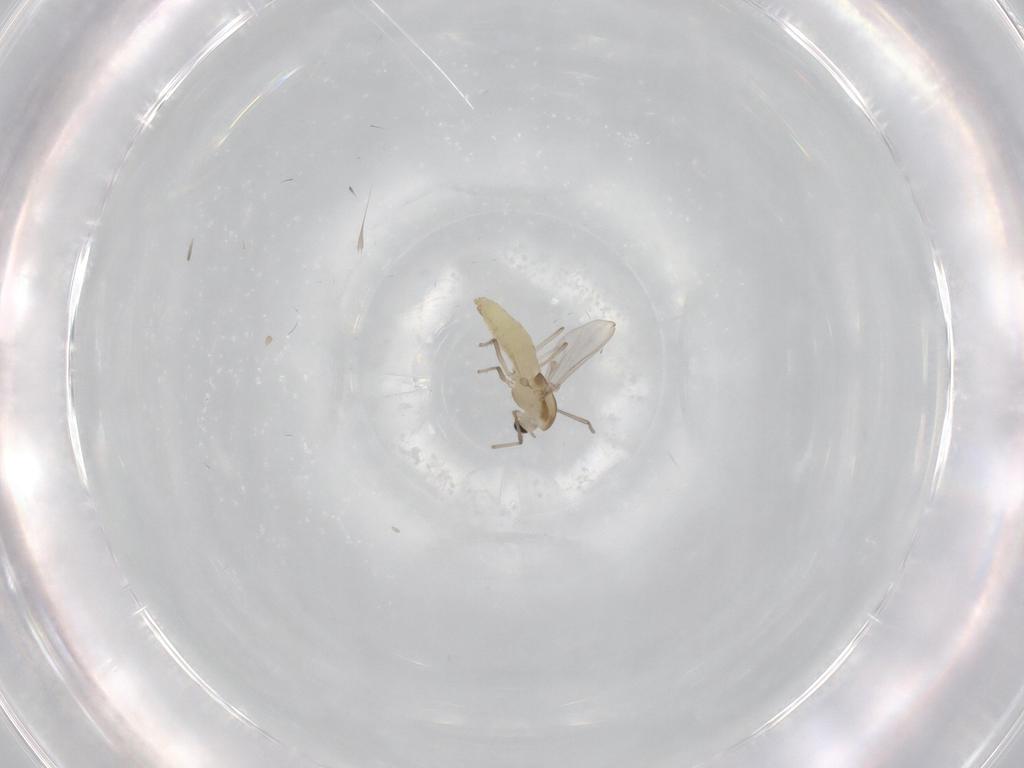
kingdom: Animalia
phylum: Arthropoda
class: Insecta
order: Diptera
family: Chironomidae
